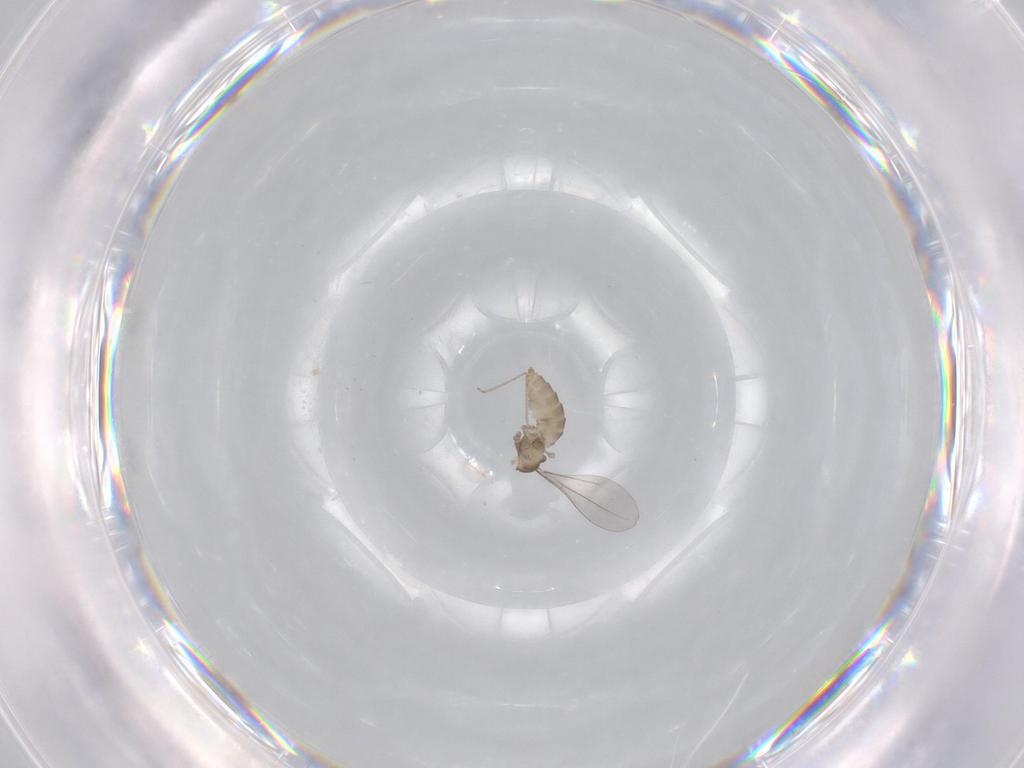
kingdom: Animalia
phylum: Arthropoda
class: Insecta
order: Diptera
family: Cecidomyiidae
